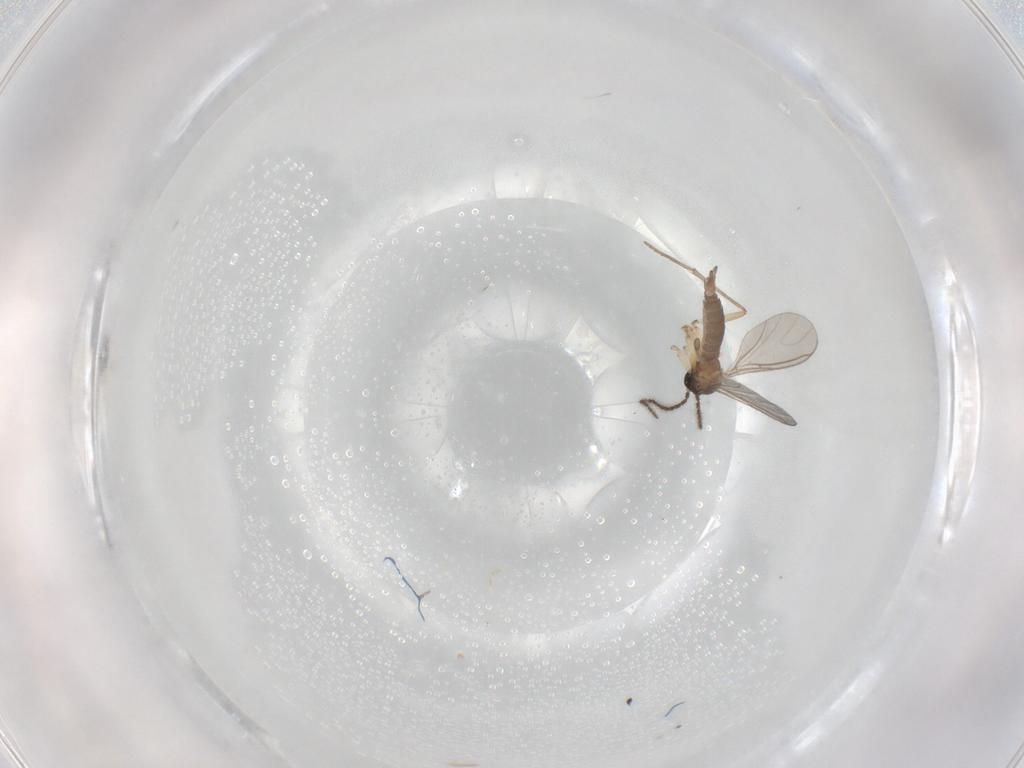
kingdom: Animalia
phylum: Arthropoda
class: Insecta
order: Diptera
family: Sciaridae
